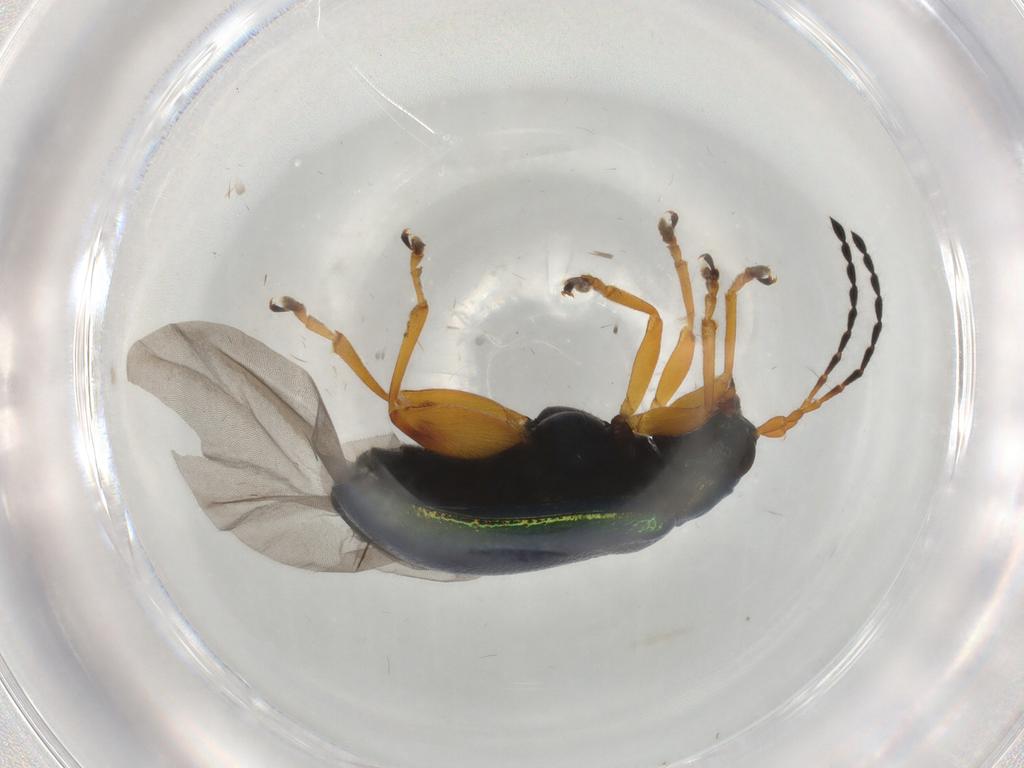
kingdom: Animalia
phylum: Arthropoda
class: Insecta
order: Coleoptera
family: Chrysomelidae
